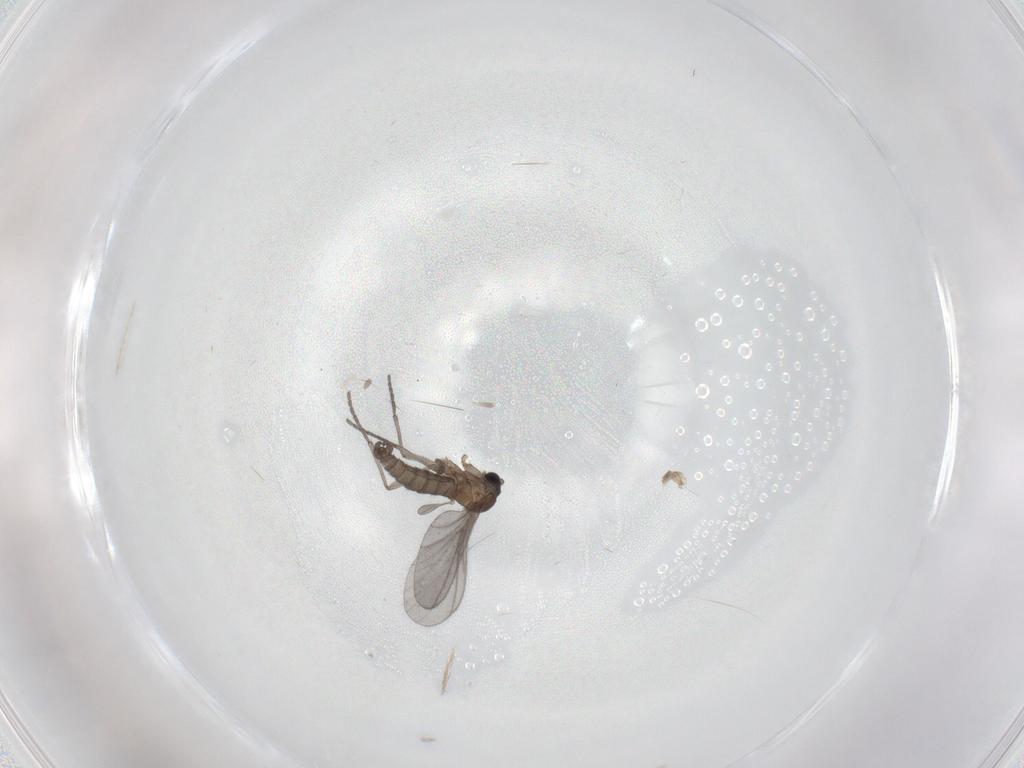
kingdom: Animalia
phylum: Arthropoda
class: Insecta
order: Diptera
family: Sciaridae
